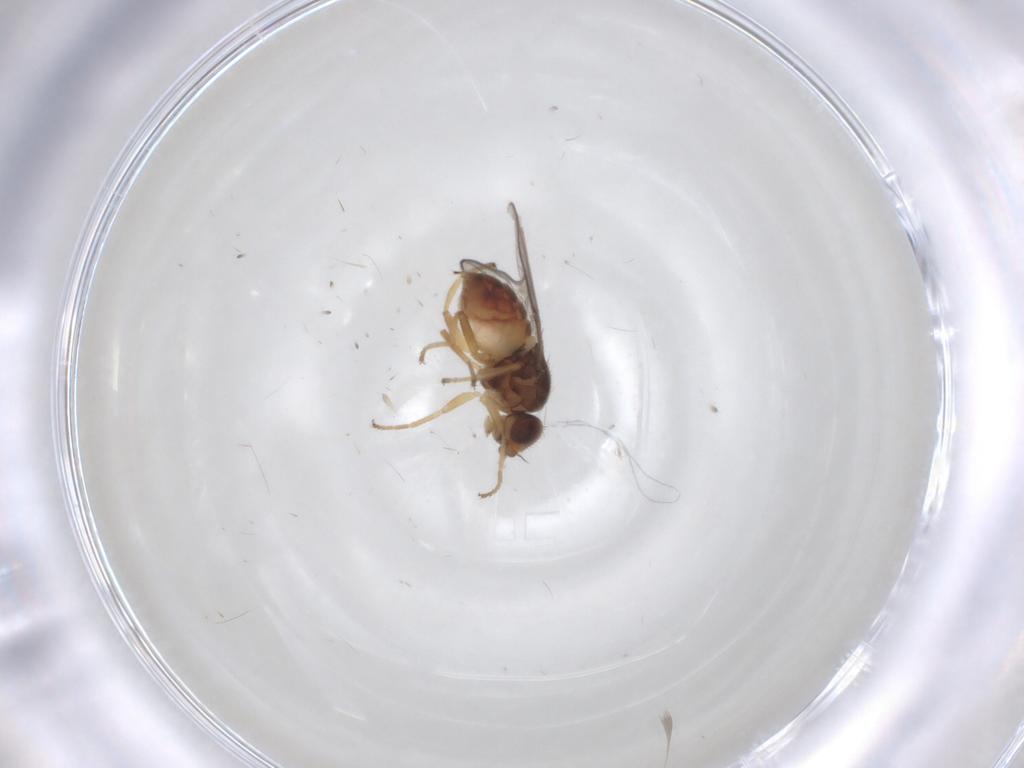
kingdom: Animalia
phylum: Arthropoda
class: Insecta
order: Diptera
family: Chloropidae
